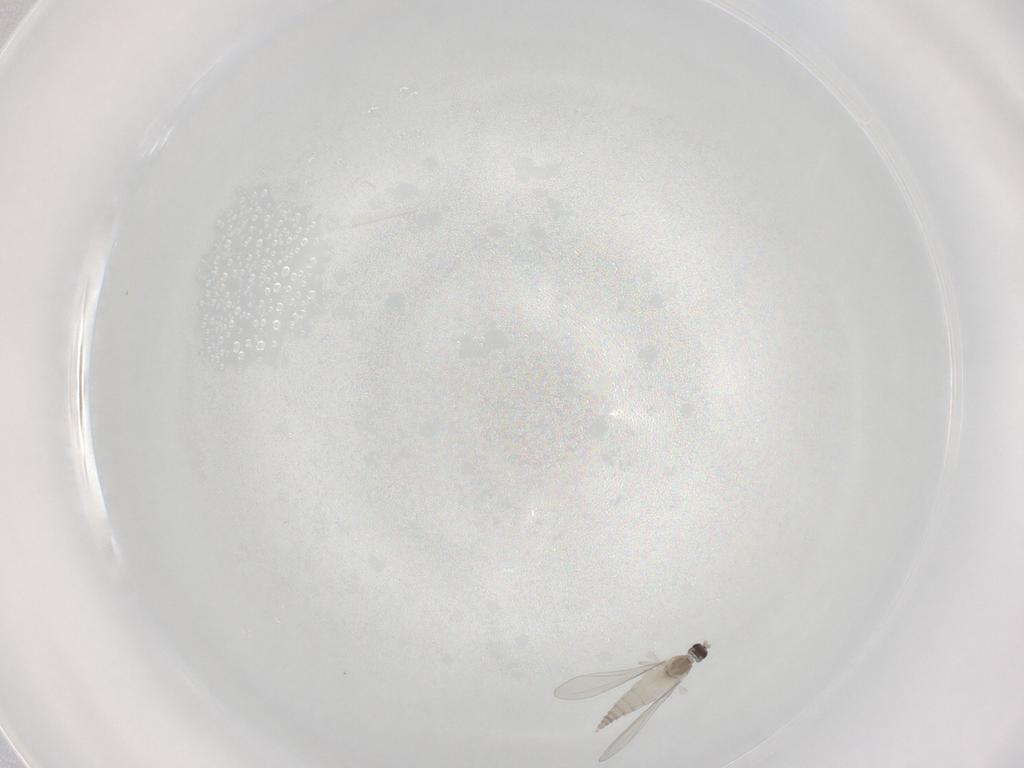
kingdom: Animalia
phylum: Arthropoda
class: Insecta
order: Diptera
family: Cecidomyiidae
